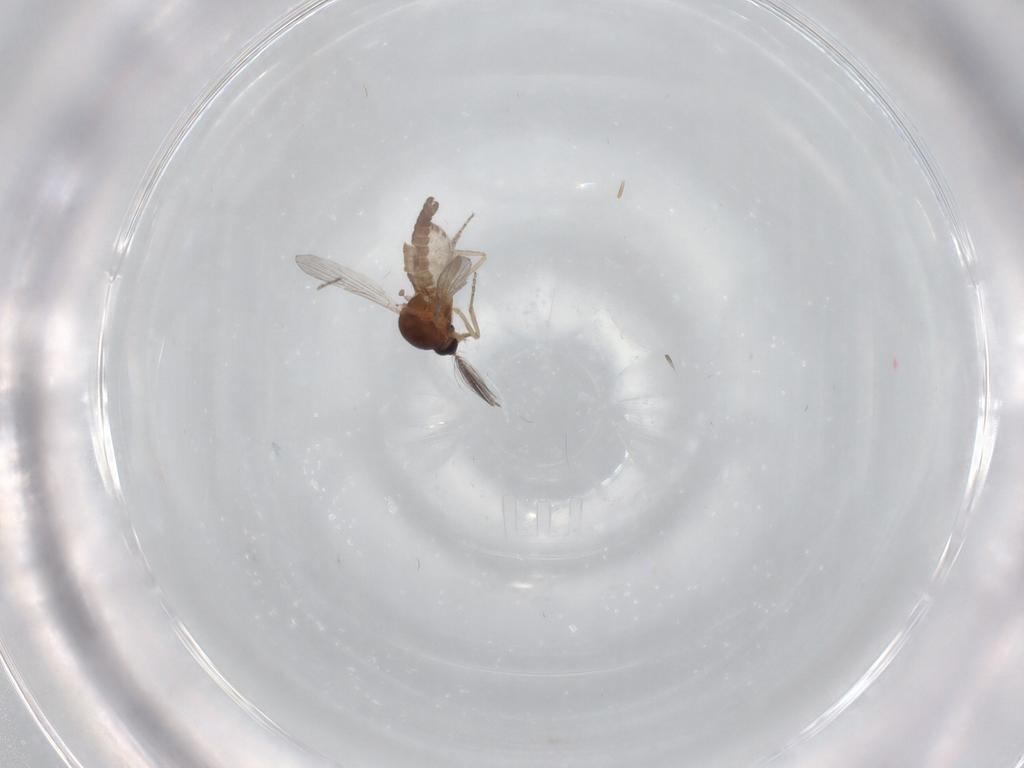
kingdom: Animalia
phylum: Arthropoda
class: Insecta
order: Diptera
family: Ceratopogonidae
